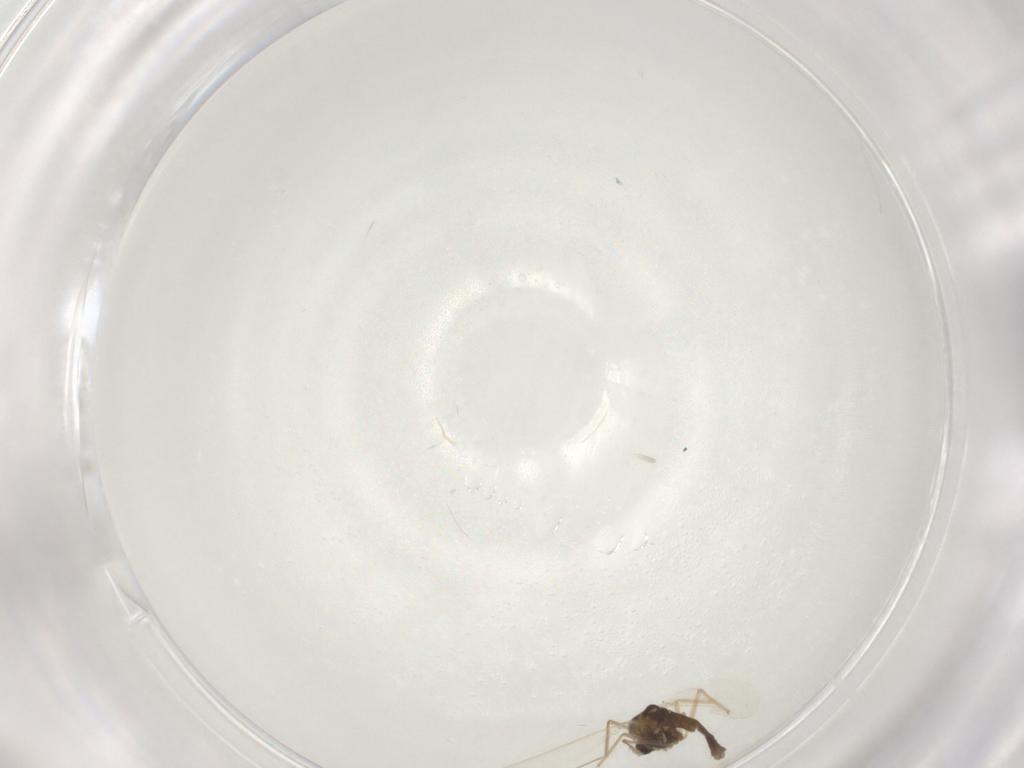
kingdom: Animalia
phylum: Arthropoda
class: Insecta
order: Diptera
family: Chironomidae
